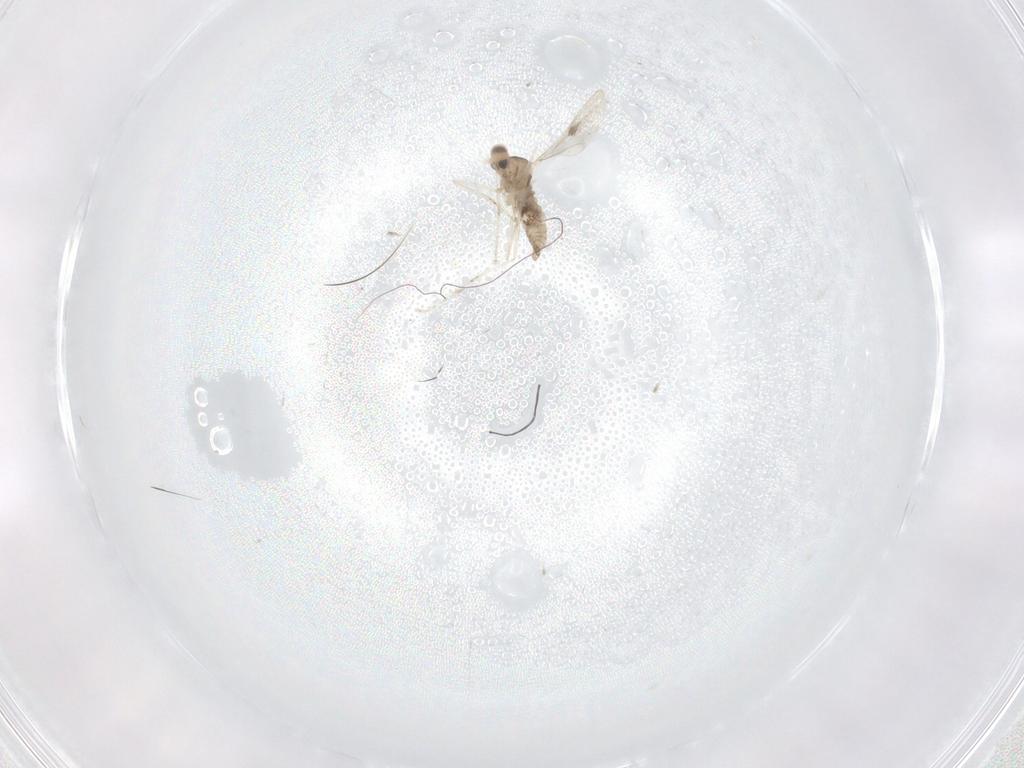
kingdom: Animalia
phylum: Arthropoda
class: Insecta
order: Diptera
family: Cecidomyiidae
